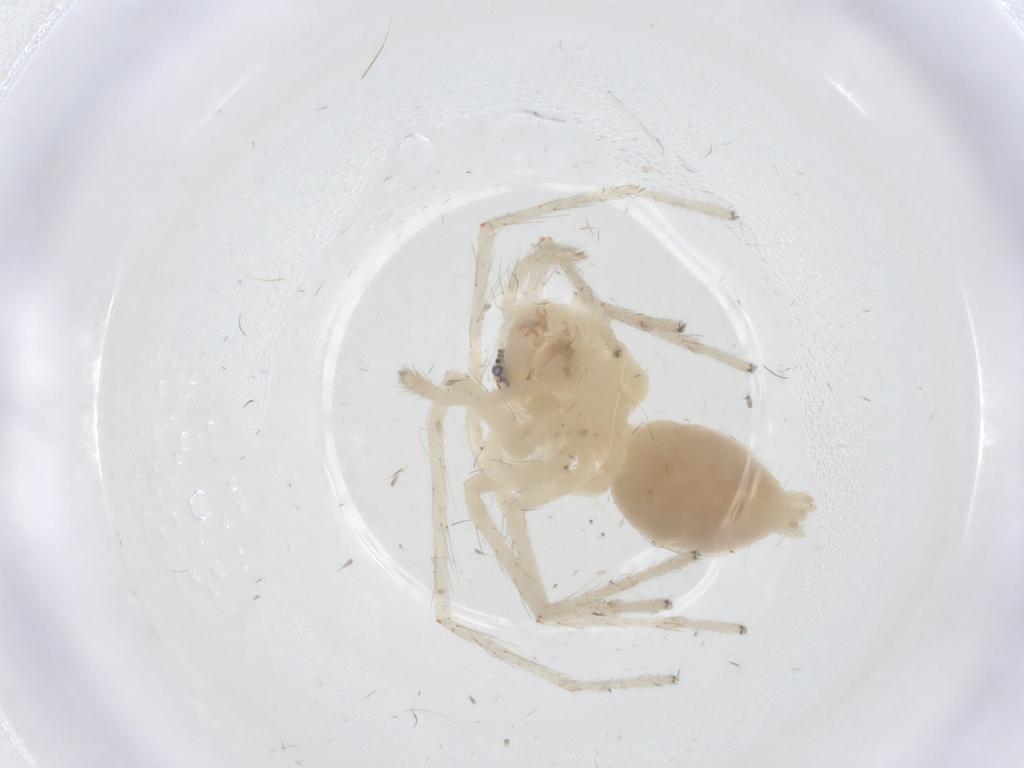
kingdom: Animalia
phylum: Arthropoda
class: Arachnida
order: Araneae
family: Anyphaenidae
